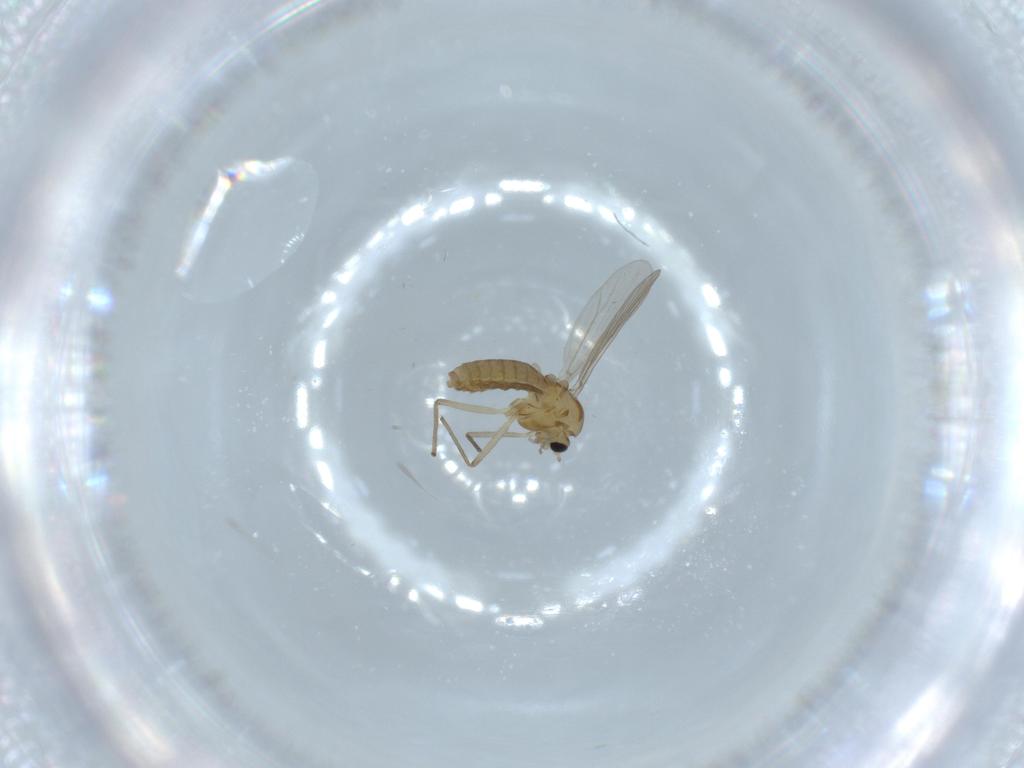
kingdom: Animalia
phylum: Arthropoda
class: Insecta
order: Diptera
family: Chironomidae
